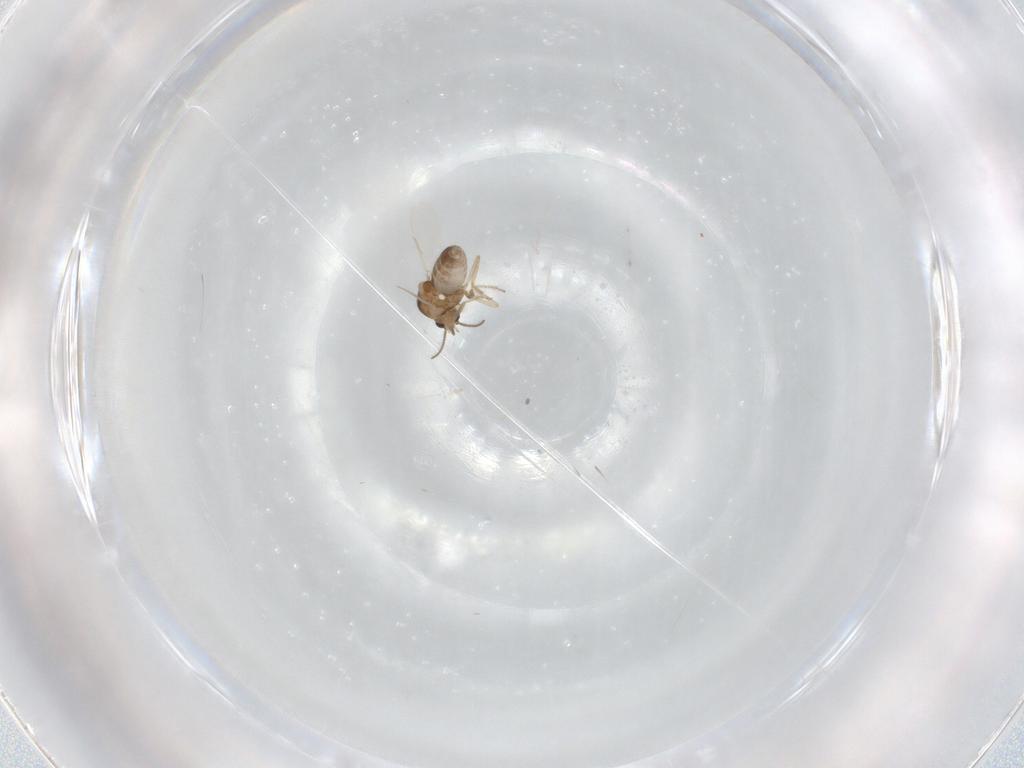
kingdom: Animalia
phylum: Arthropoda
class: Insecta
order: Diptera
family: Ceratopogonidae
